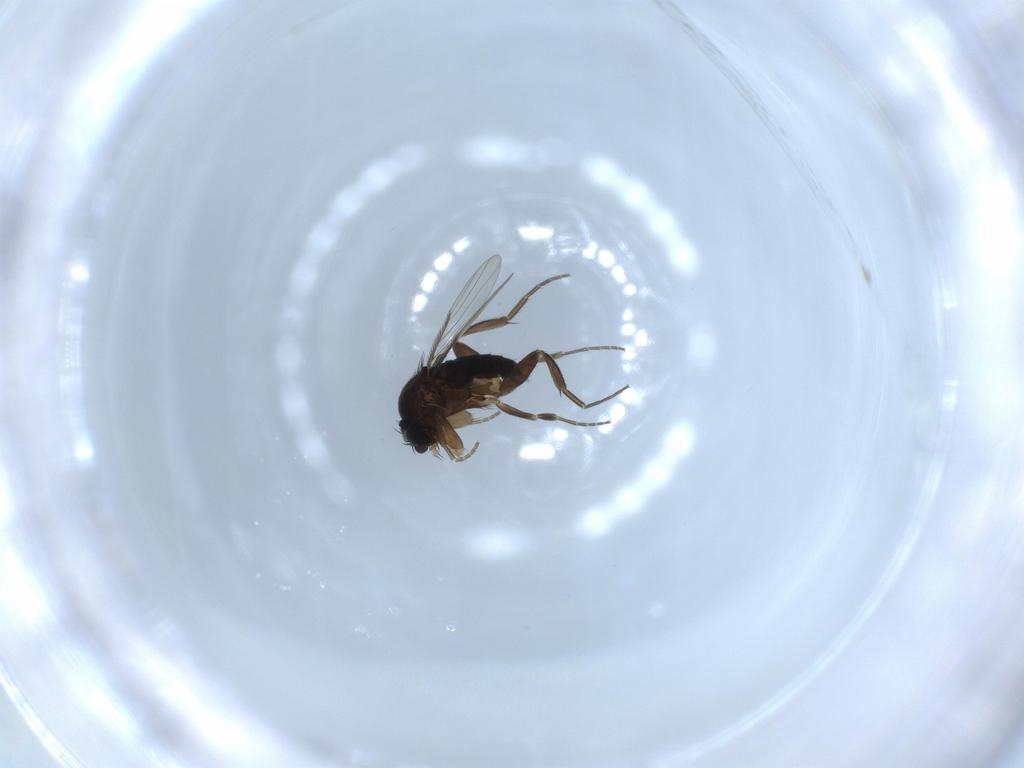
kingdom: Animalia
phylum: Arthropoda
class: Insecta
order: Diptera
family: Phoridae
